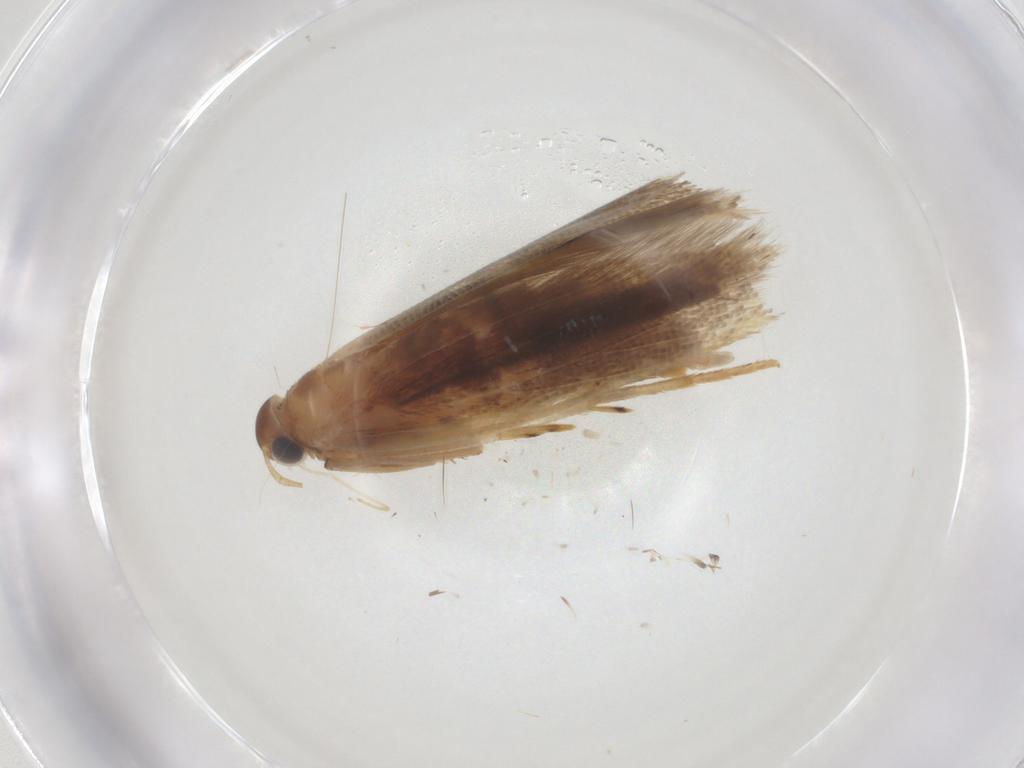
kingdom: Animalia
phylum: Arthropoda
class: Insecta
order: Lepidoptera
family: Gelechiidae
